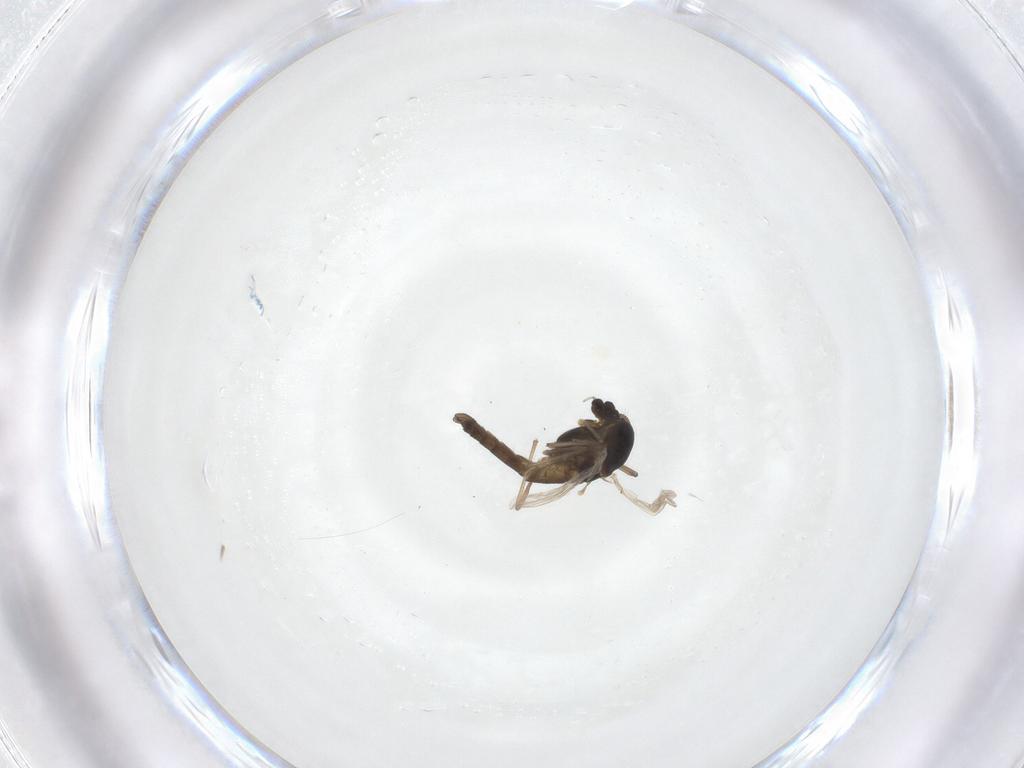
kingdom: Animalia
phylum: Arthropoda
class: Insecta
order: Diptera
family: Chironomidae
